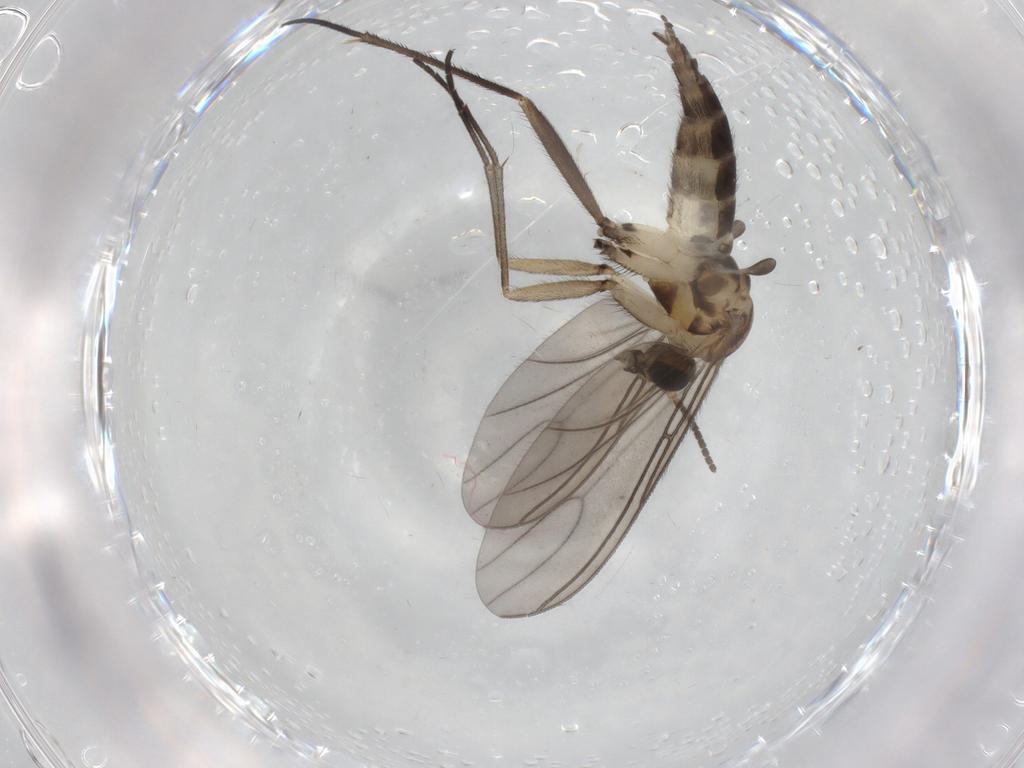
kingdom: Animalia
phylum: Arthropoda
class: Insecta
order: Diptera
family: Sciaridae
